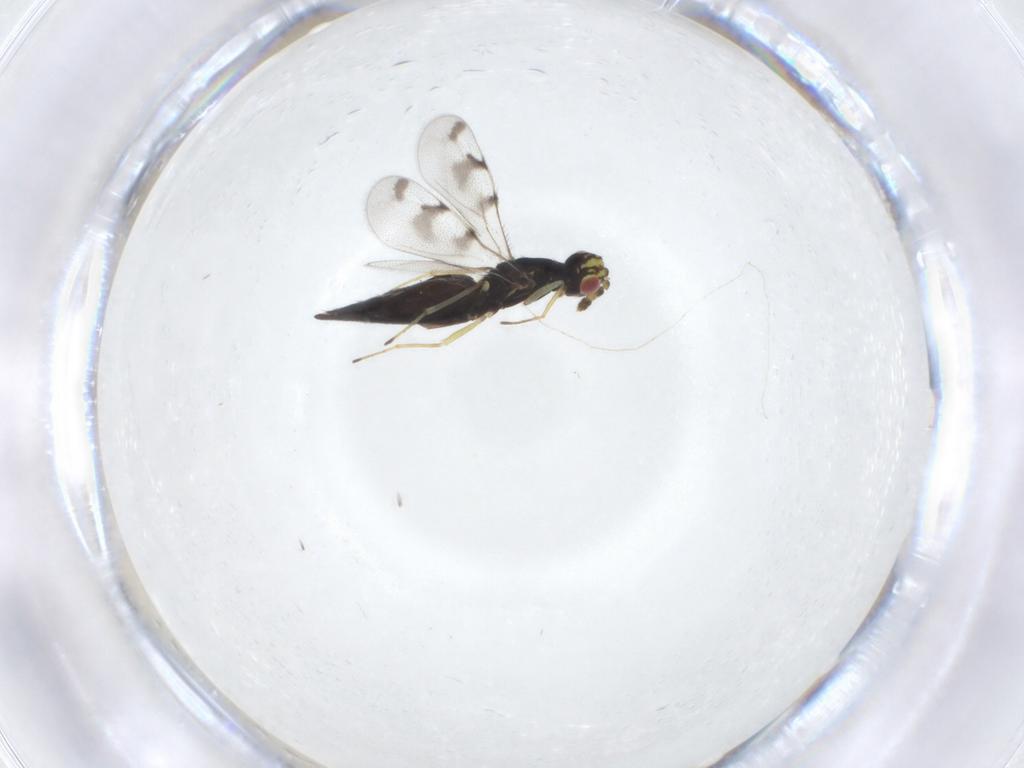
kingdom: Animalia
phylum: Arthropoda
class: Insecta
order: Hymenoptera
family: Eulophidae
